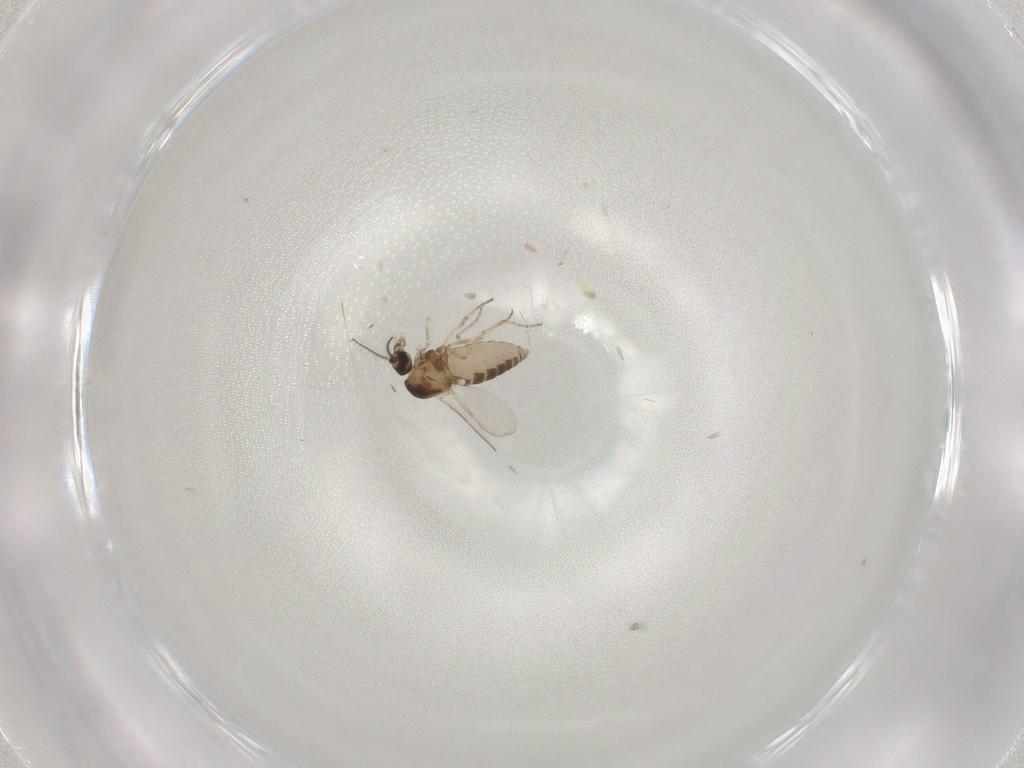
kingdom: Animalia
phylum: Arthropoda
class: Insecta
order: Diptera
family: Ceratopogonidae
